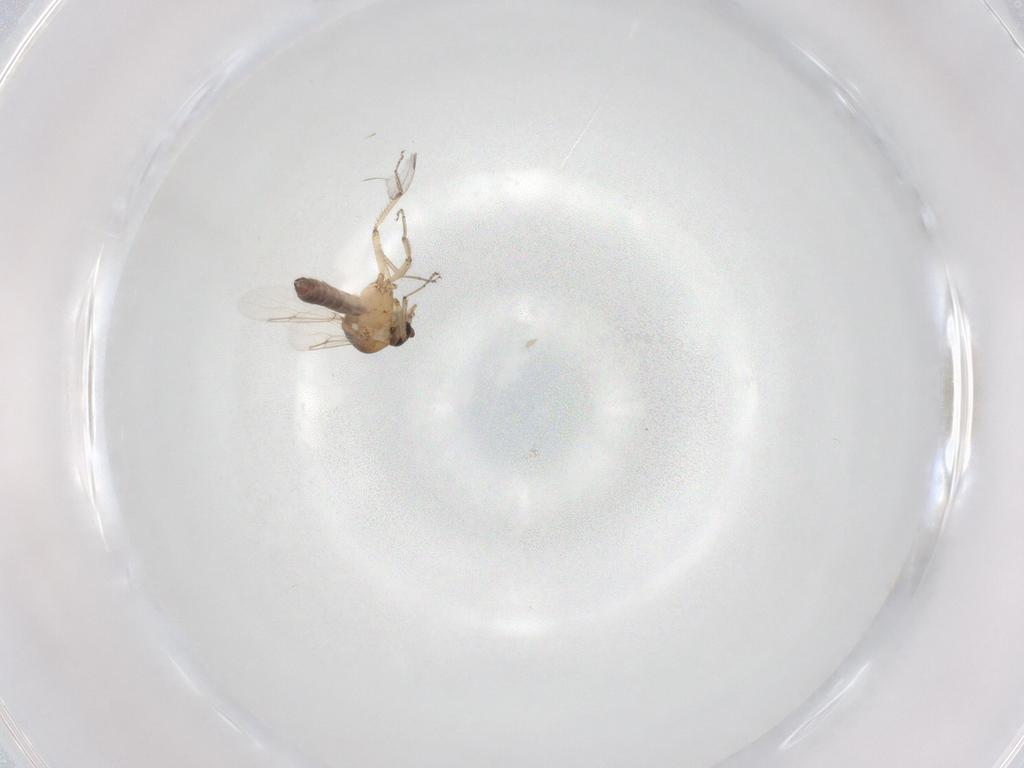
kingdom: Animalia
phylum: Arthropoda
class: Insecta
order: Diptera
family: Ceratopogonidae
